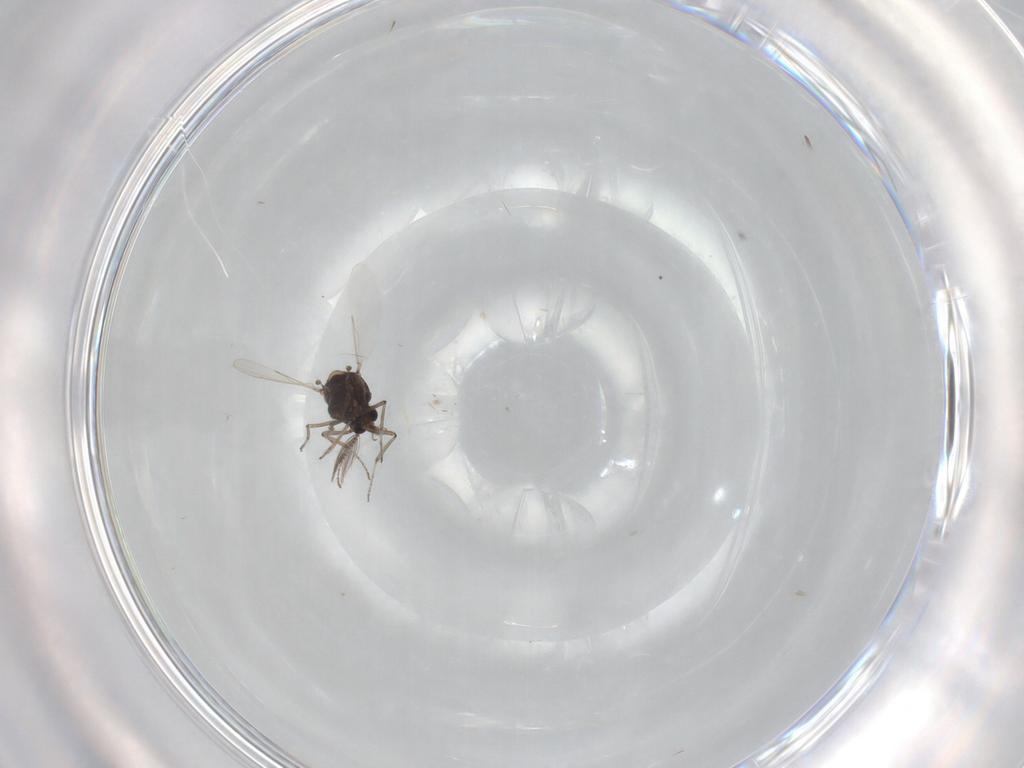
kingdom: Animalia
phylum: Arthropoda
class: Insecta
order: Diptera
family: Ceratopogonidae
